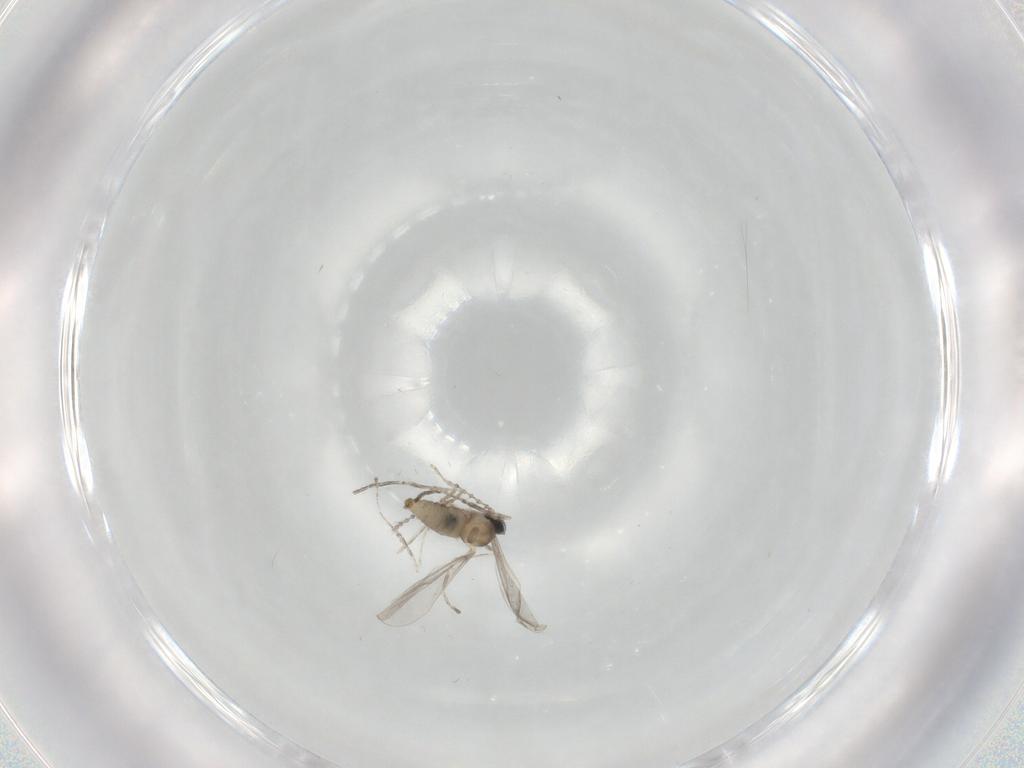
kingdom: Animalia
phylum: Arthropoda
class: Insecta
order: Diptera
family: Cecidomyiidae
